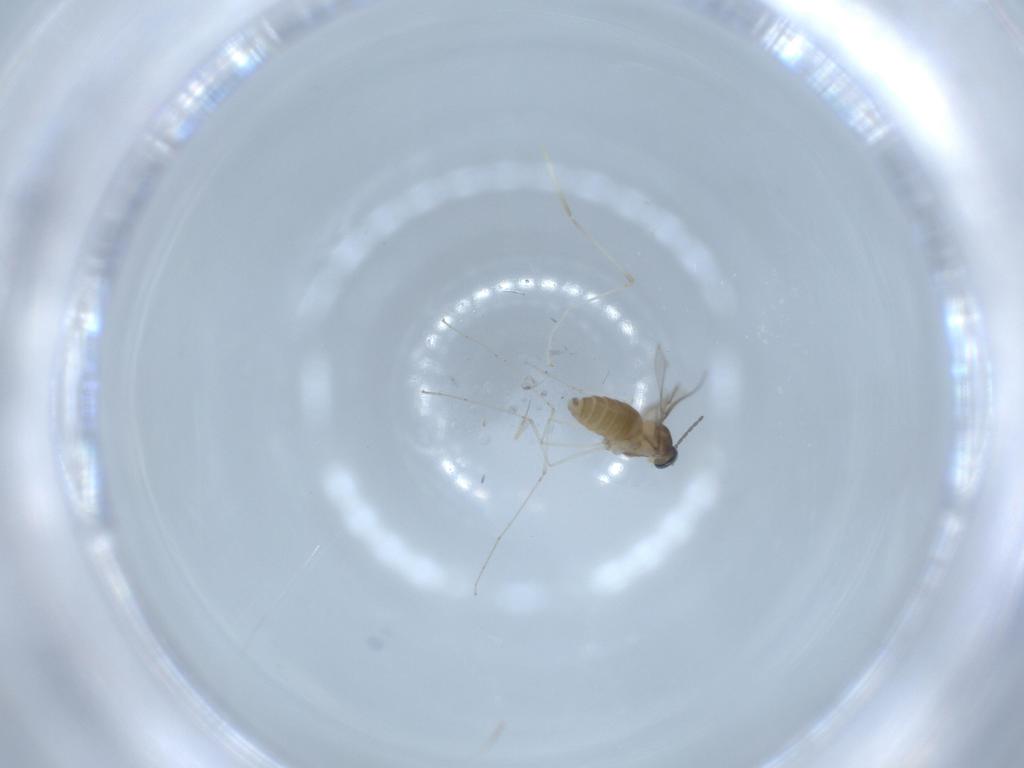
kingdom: Animalia
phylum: Arthropoda
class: Insecta
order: Diptera
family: Cecidomyiidae
